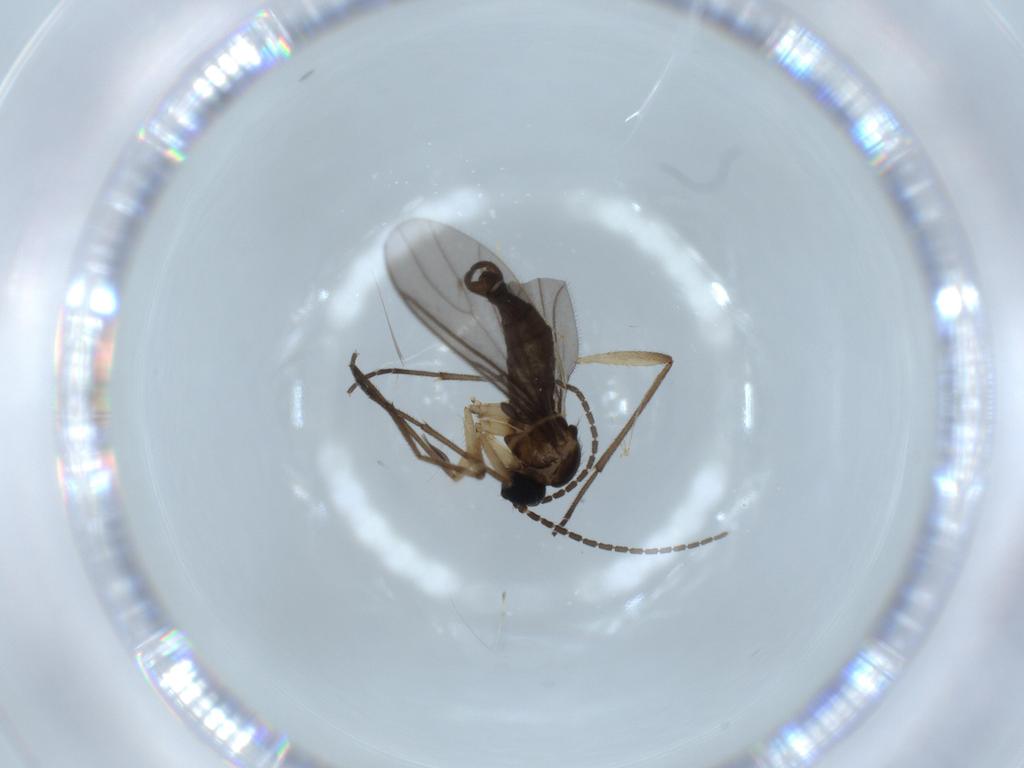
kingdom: Animalia
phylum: Arthropoda
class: Insecta
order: Diptera
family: Sciaridae
